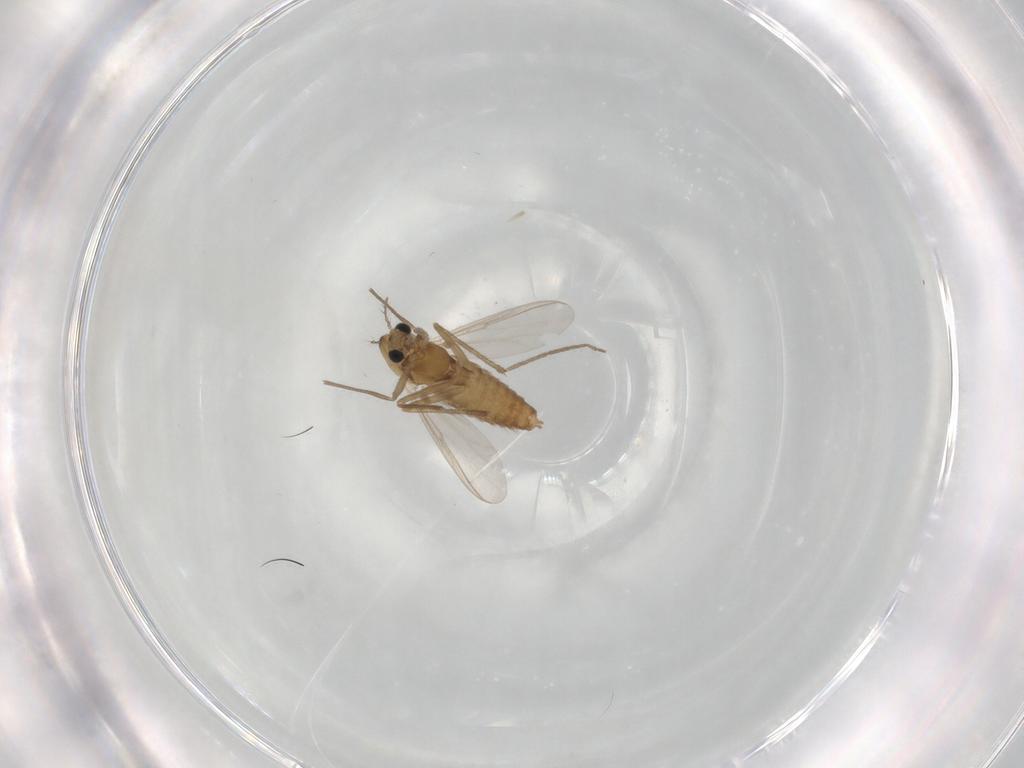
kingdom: Animalia
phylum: Arthropoda
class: Insecta
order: Diptera
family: Chironomidae
